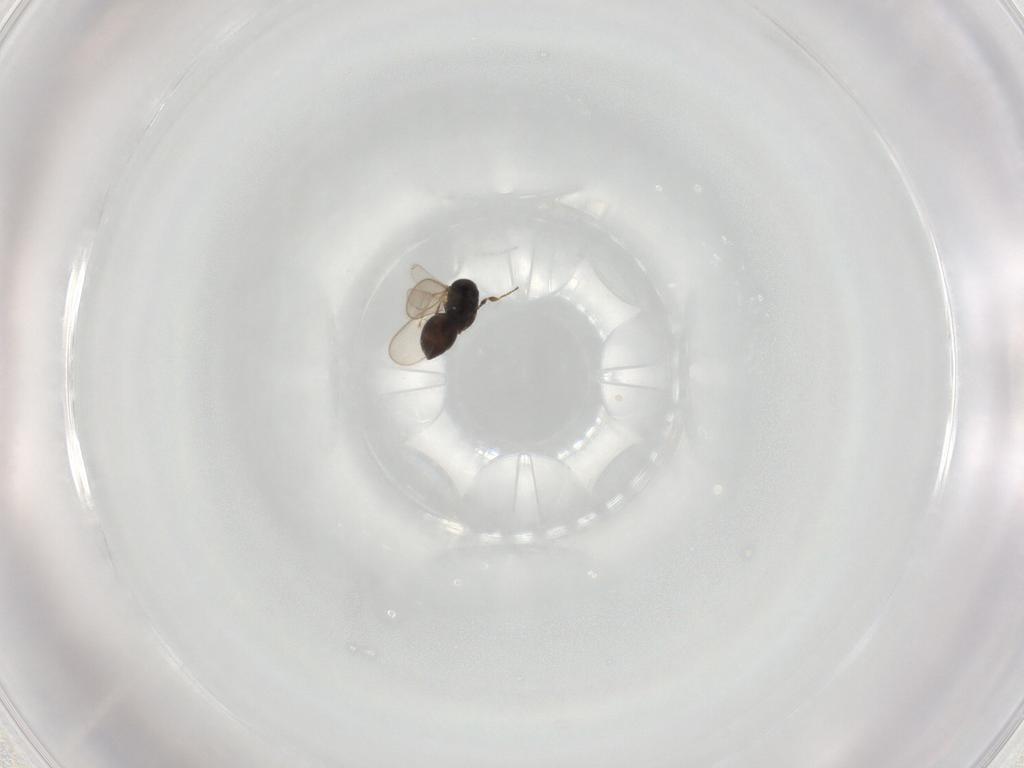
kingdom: Animalia
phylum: Arthropoda
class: Insecta
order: Hymenoptera
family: Scelionidae
